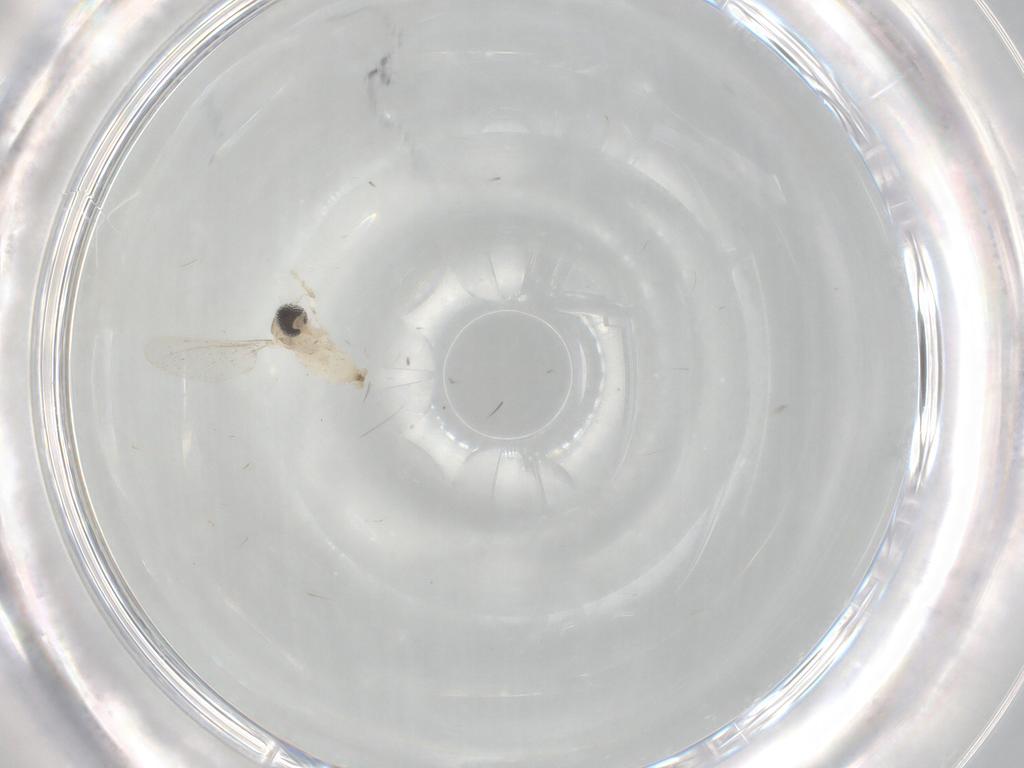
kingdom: Animalia
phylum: Arthropoda
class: Insecta
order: Diptera
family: Cecidomyiidae
